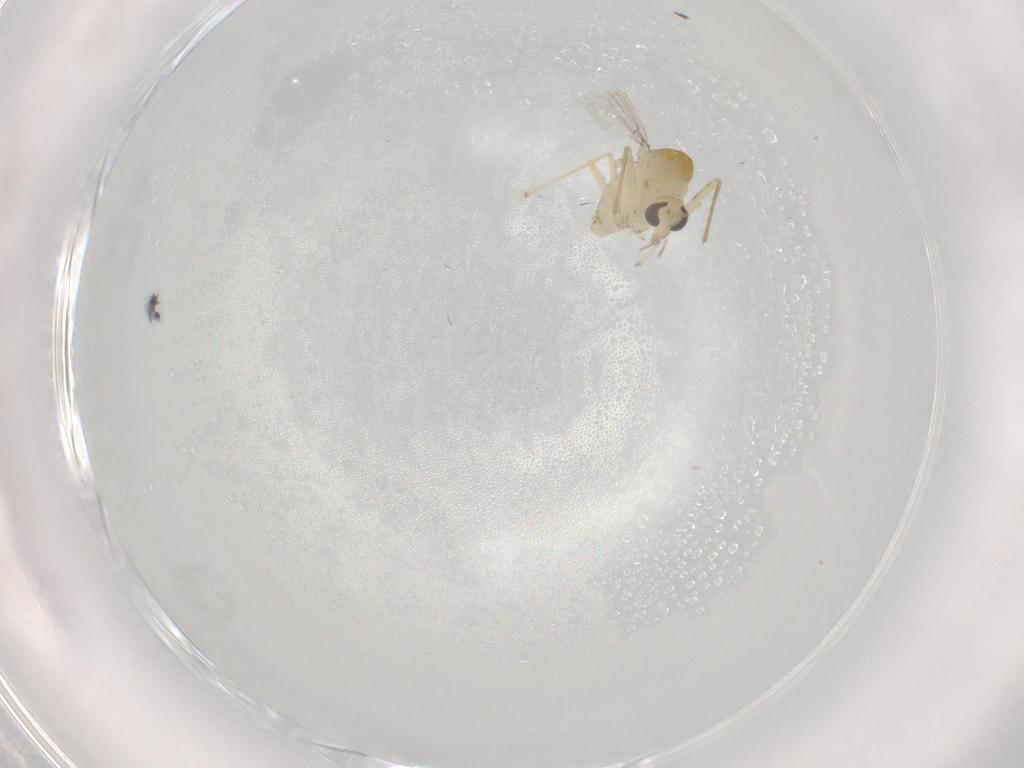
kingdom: Animalia
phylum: Arthropoda
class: Insecta
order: Diptera
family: Chironomidae
